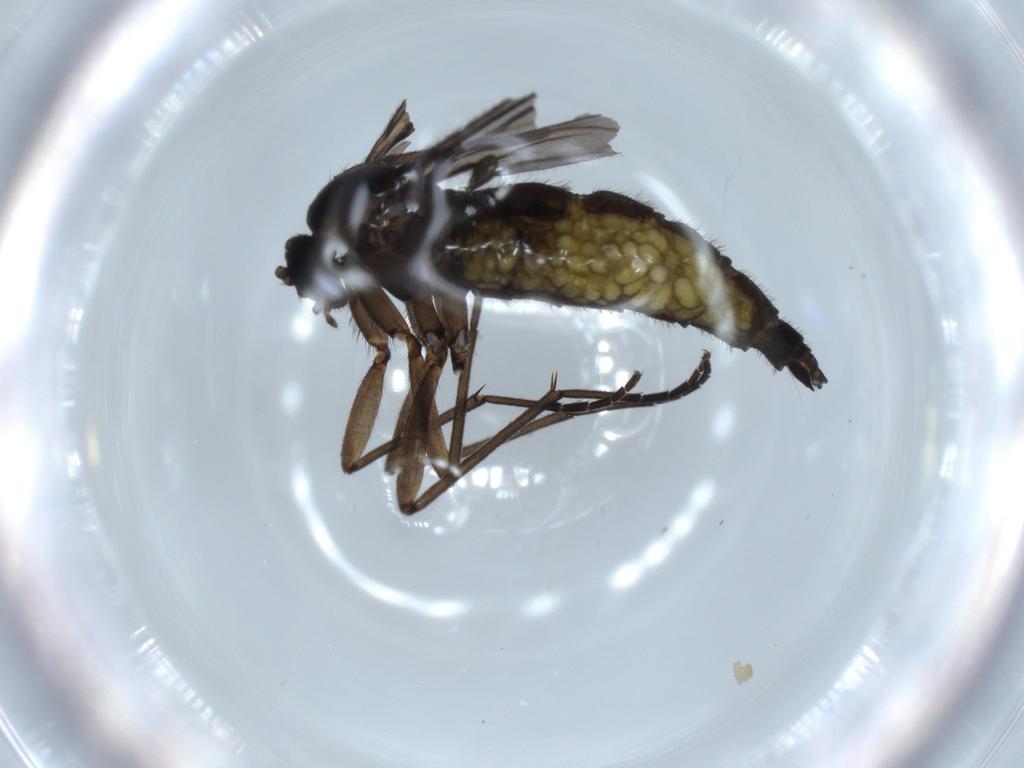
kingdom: Animalia
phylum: Arthropoda
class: Insecta
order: Diptera
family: Sciaridae
